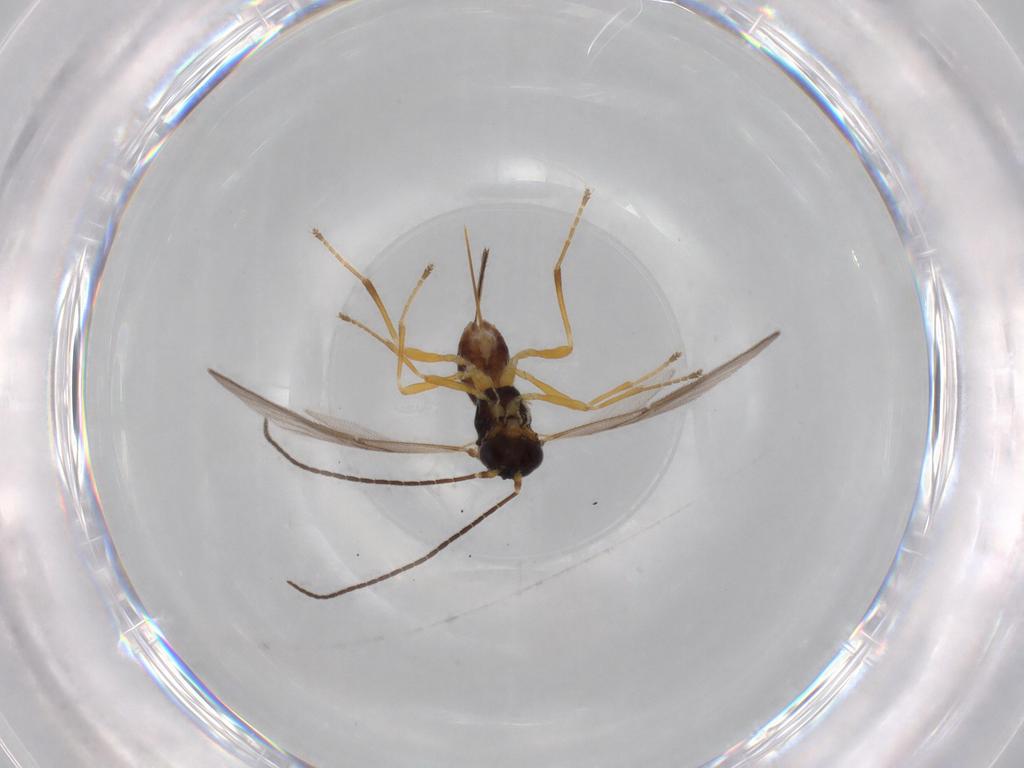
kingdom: Animalia
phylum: Arthropoda
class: Insecta
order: Hymenoptera
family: Braconidae
